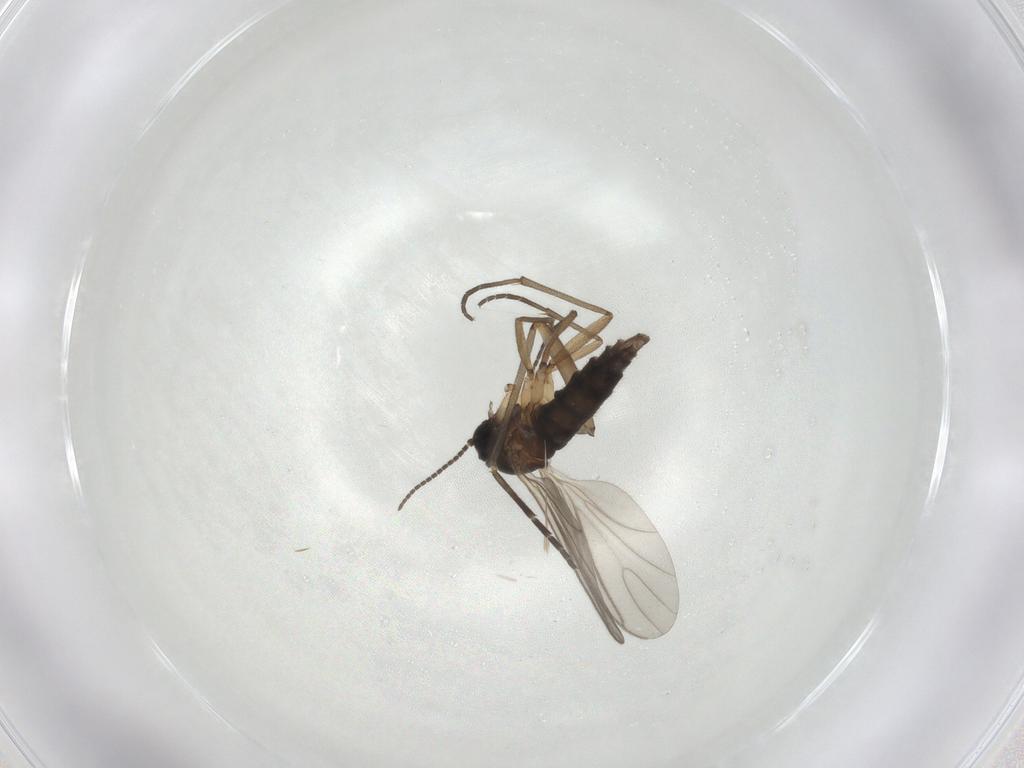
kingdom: Animalia
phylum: Arthropoda
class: Insecta
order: Diptera
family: Sciaridae
